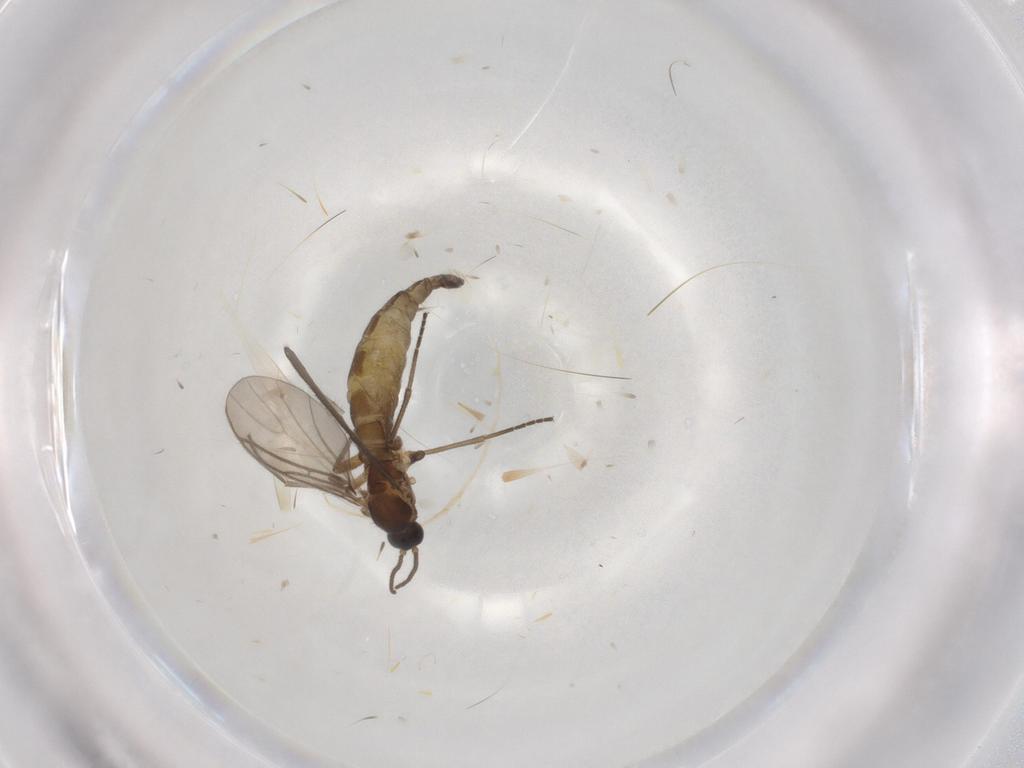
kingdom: Animalia
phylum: Arthropoda
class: Insecta
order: Diptera
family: Sciaridae
